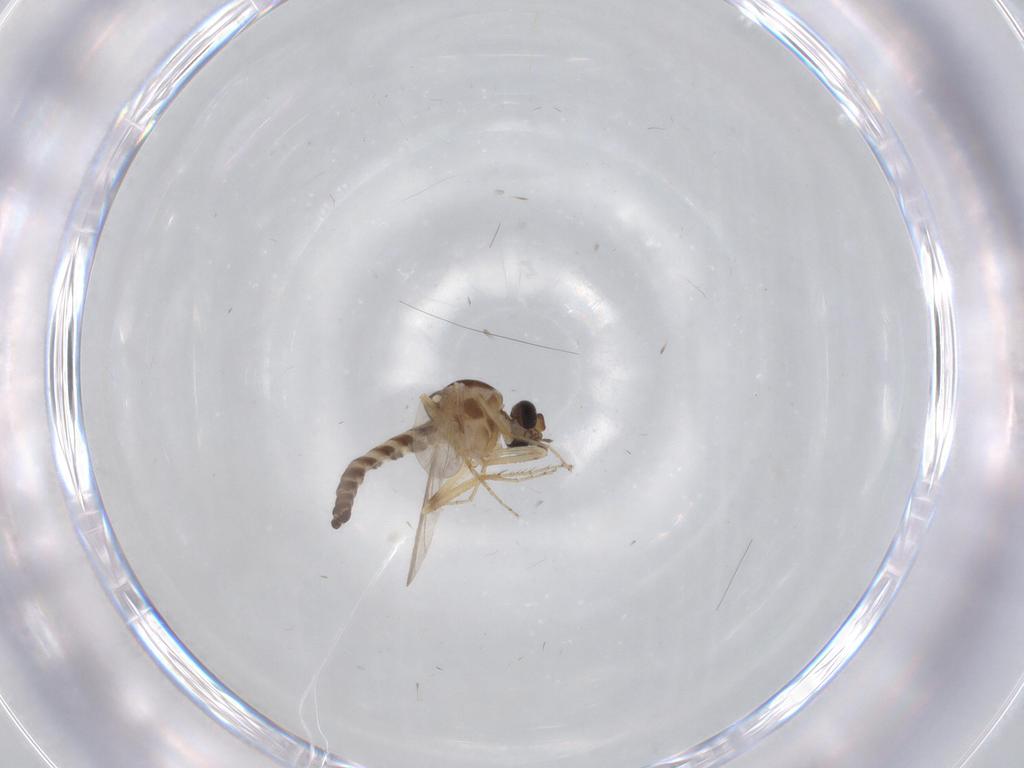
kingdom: Animalia
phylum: Arthropoda
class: Insecta
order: Diptera
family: Ceratopogonidae
